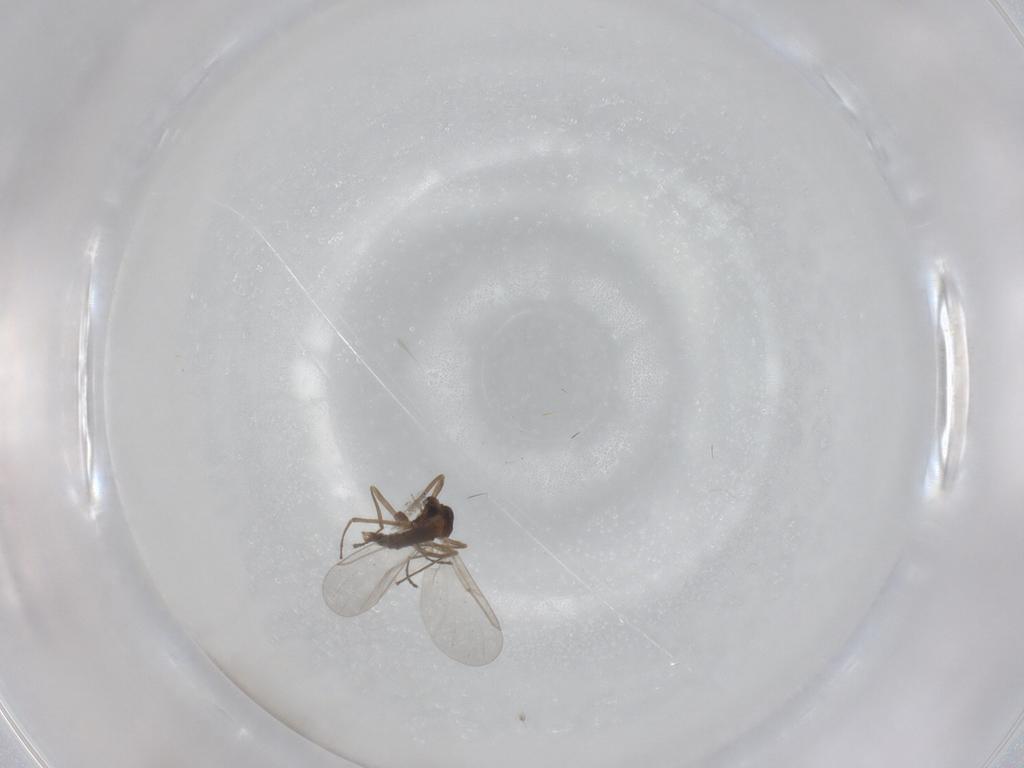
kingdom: Animalia
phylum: Arthropoda
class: Insecta
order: Diptera
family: Cecidomyiidae
